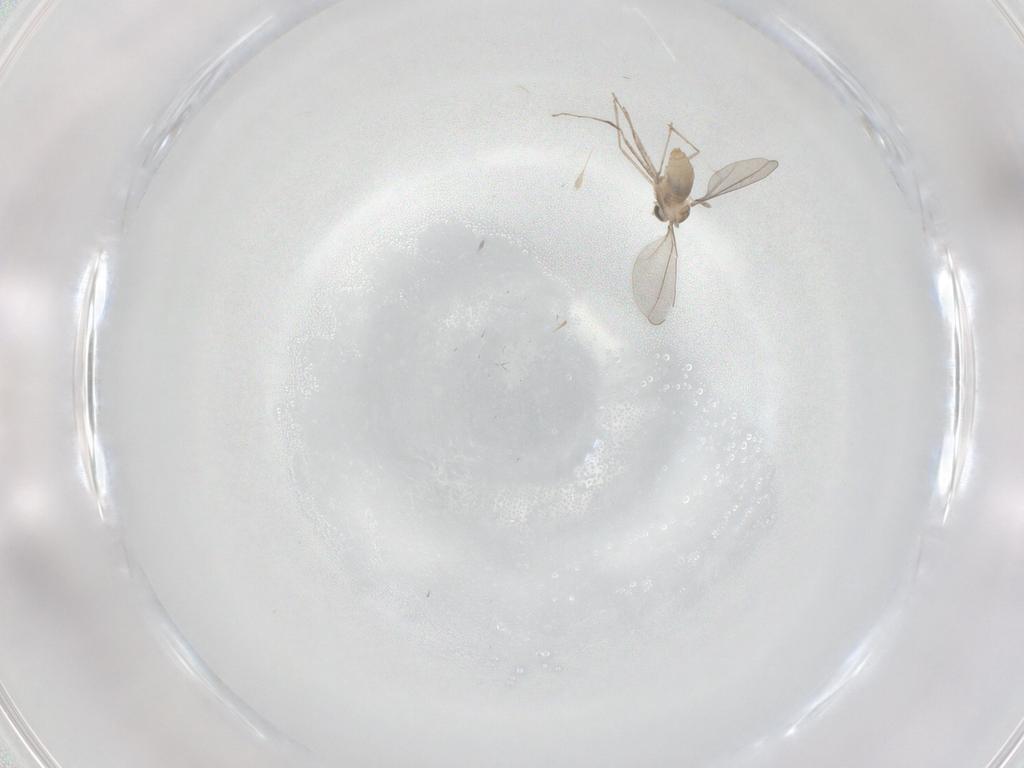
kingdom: Animalia
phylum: Arthropoda
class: Insecta
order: Diptera
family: Cecidomyiidae
